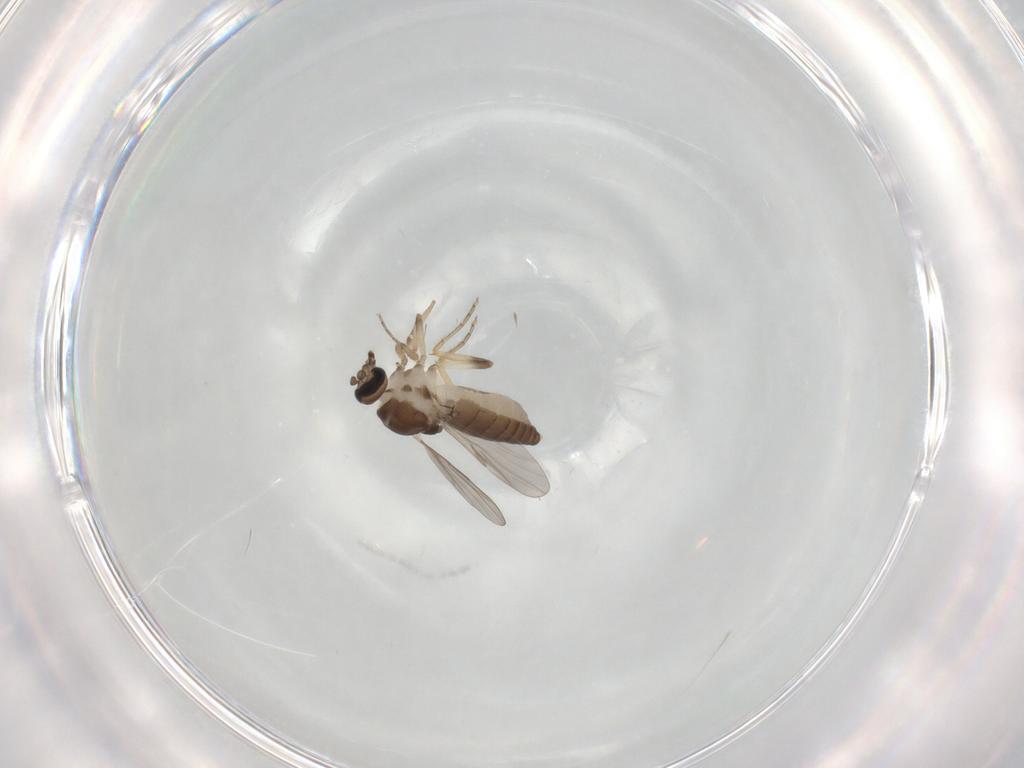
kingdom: Animalia
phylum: Arthropoda
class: Insecta
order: Diptera
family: Ceratopogonidae
